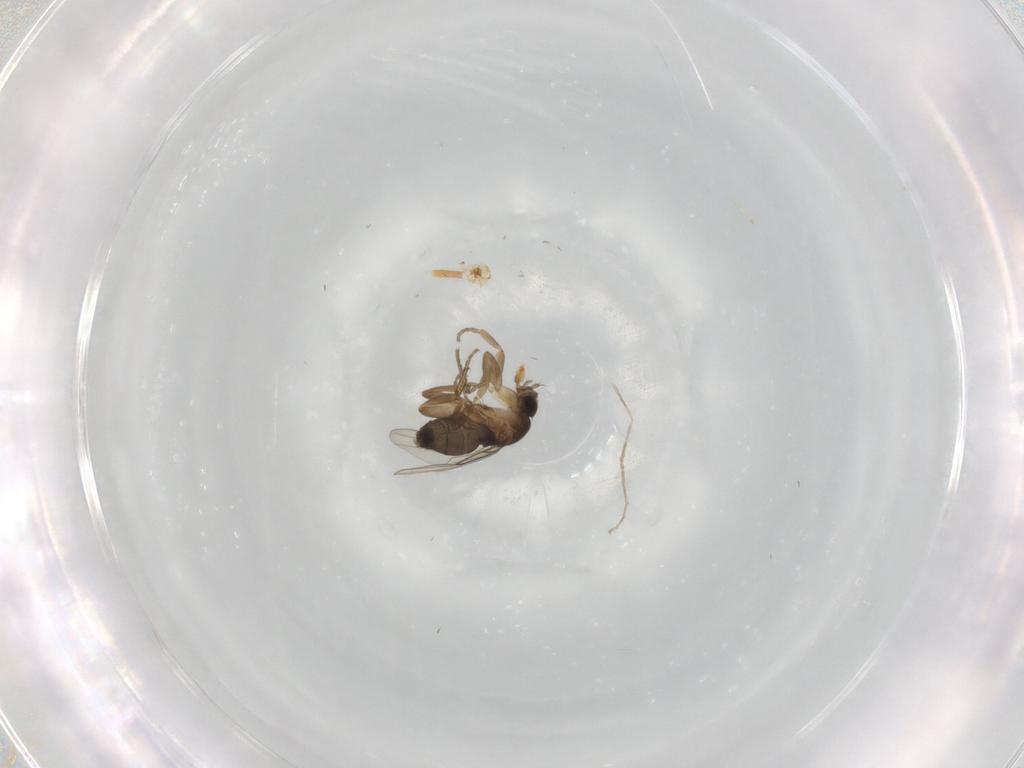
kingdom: Animalia
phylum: Arthropoda
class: Insecta
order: Diptera
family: Phoridae
